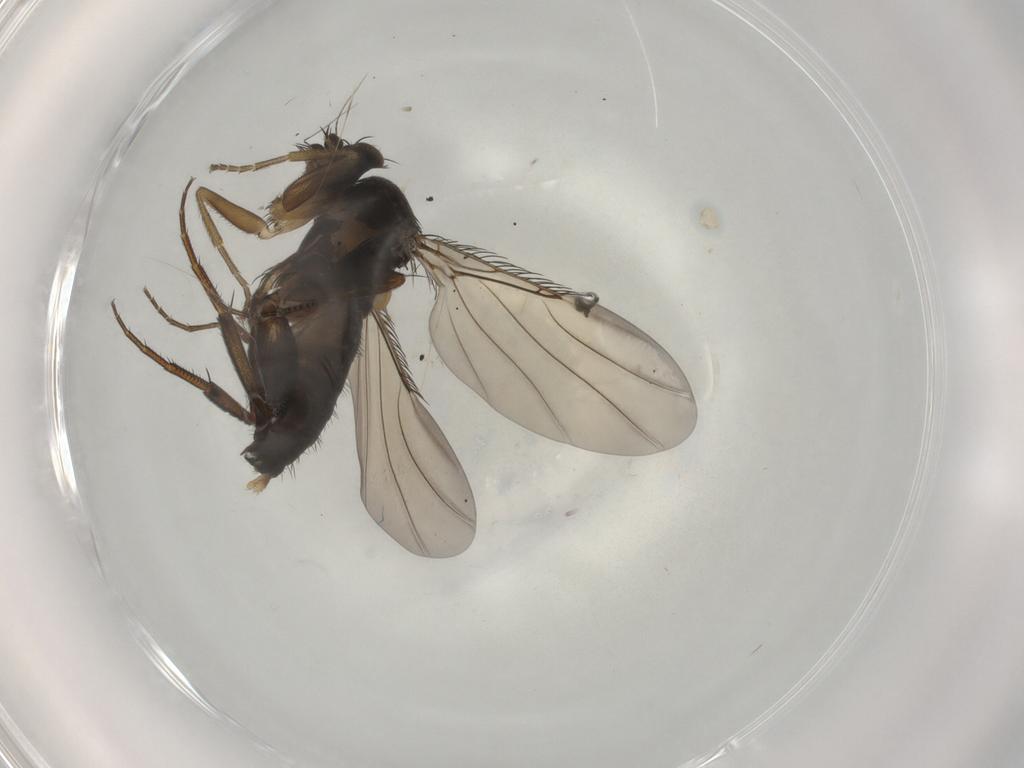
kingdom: Animalia
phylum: Arthropoda
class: Insecta
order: Diptera
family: Phoridae
